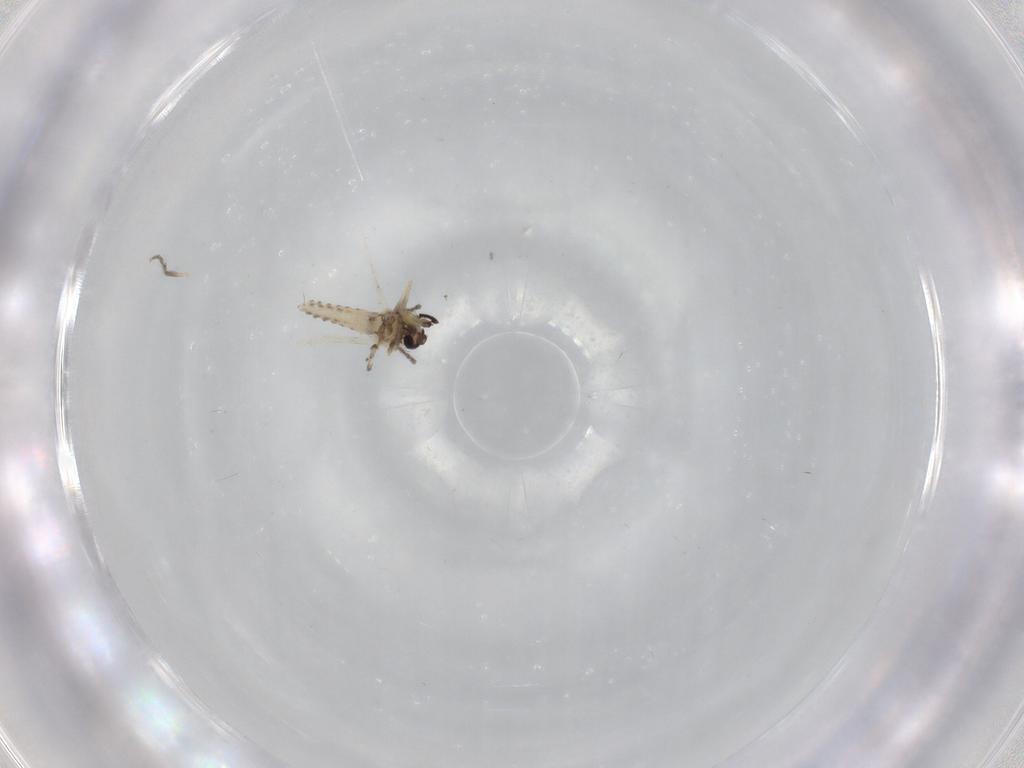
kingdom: Animalia
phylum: Arthropoda
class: Insecta
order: Diptera
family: Ceratopogonidae
